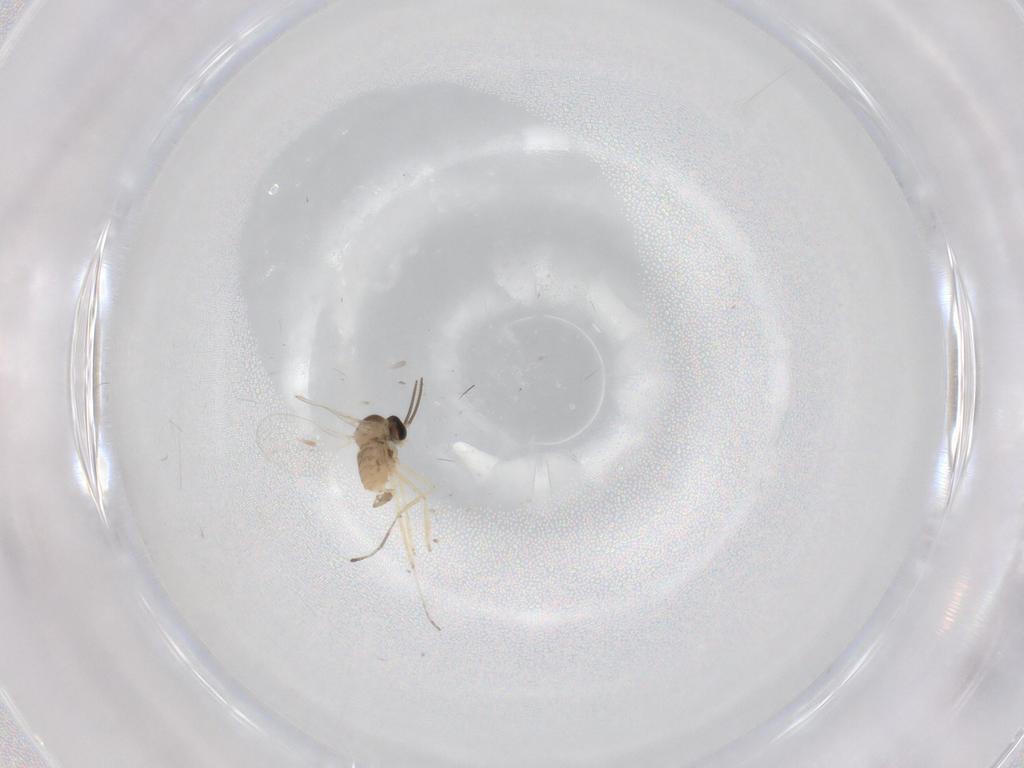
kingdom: Animalia
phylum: Arthropoda
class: Insecta
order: Diptera
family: Cecidomyiidae
